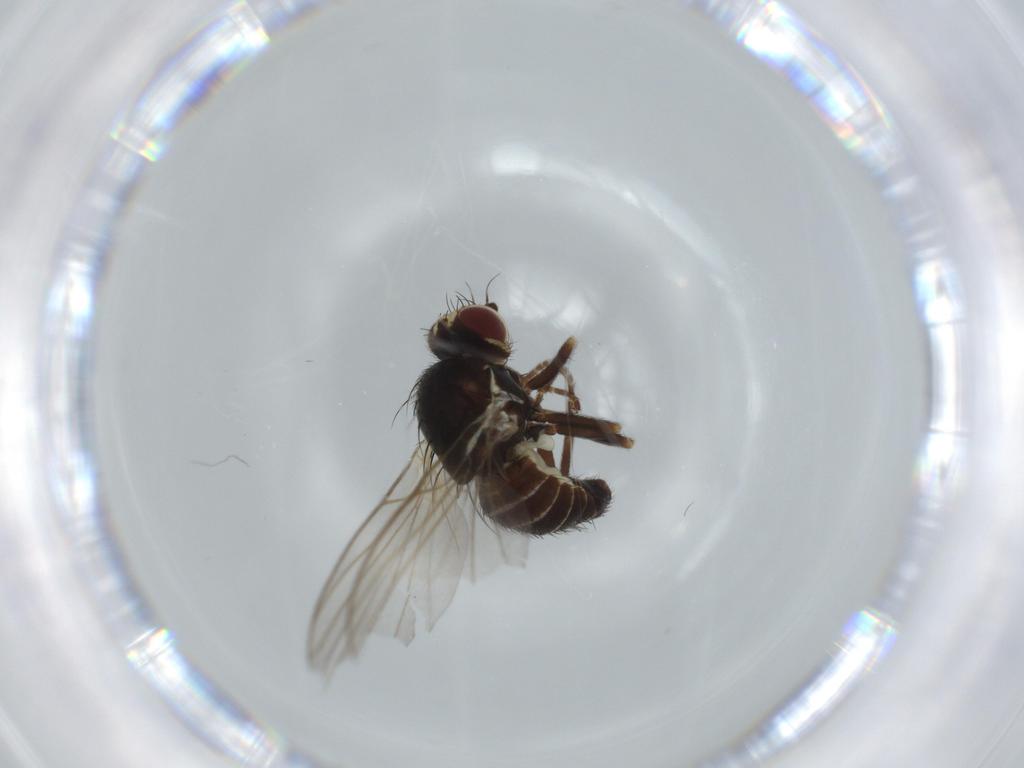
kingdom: Animalia
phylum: Arthropoda
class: Insecta
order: Diptera
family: Agromyzidae
